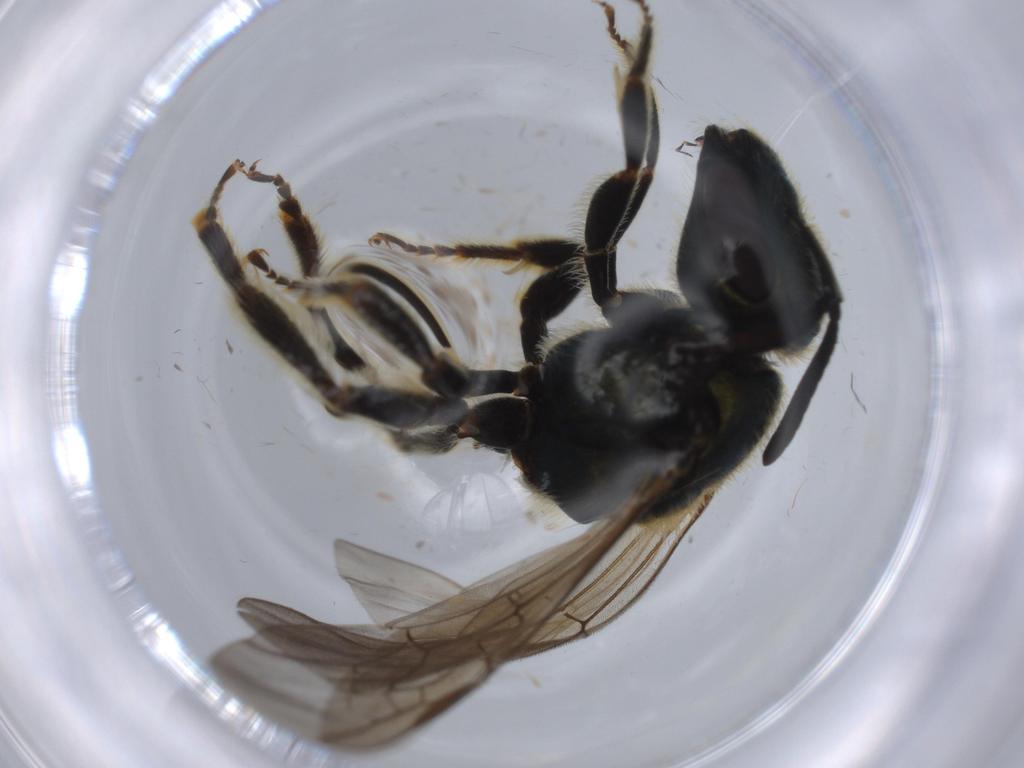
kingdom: Animalia
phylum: Arthropoda
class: Insecta
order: Hymenoptera
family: Halictidae
